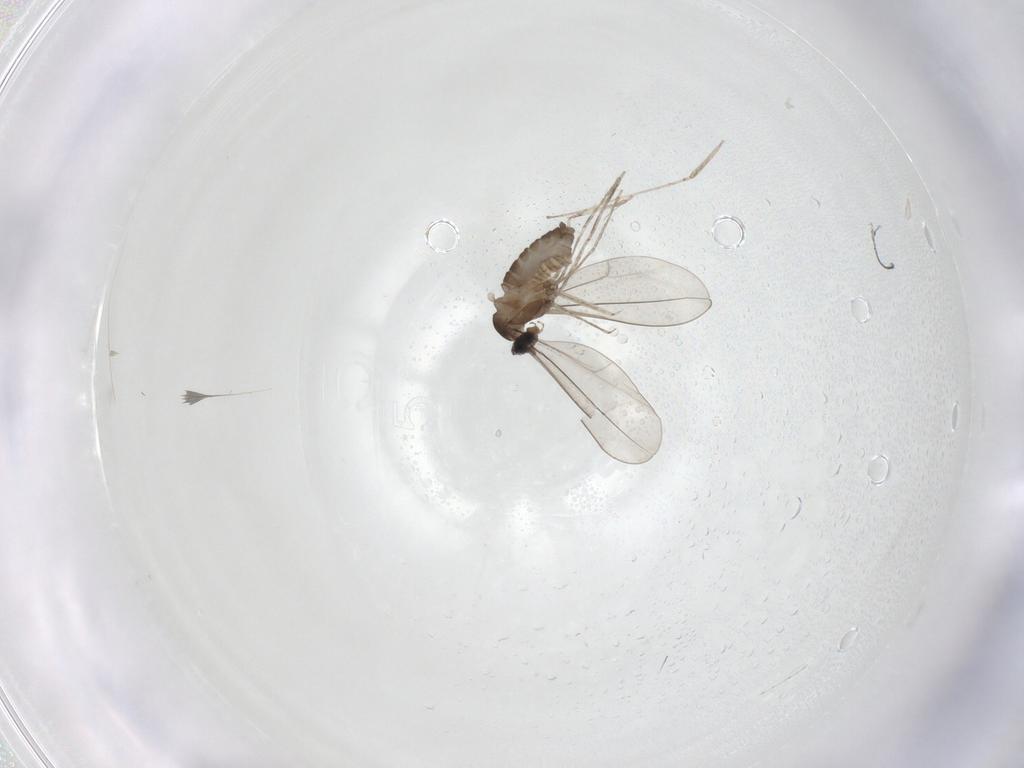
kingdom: Animalia
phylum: Arthropoda
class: Insecta
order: Diptera
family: Cecidomyiidae
